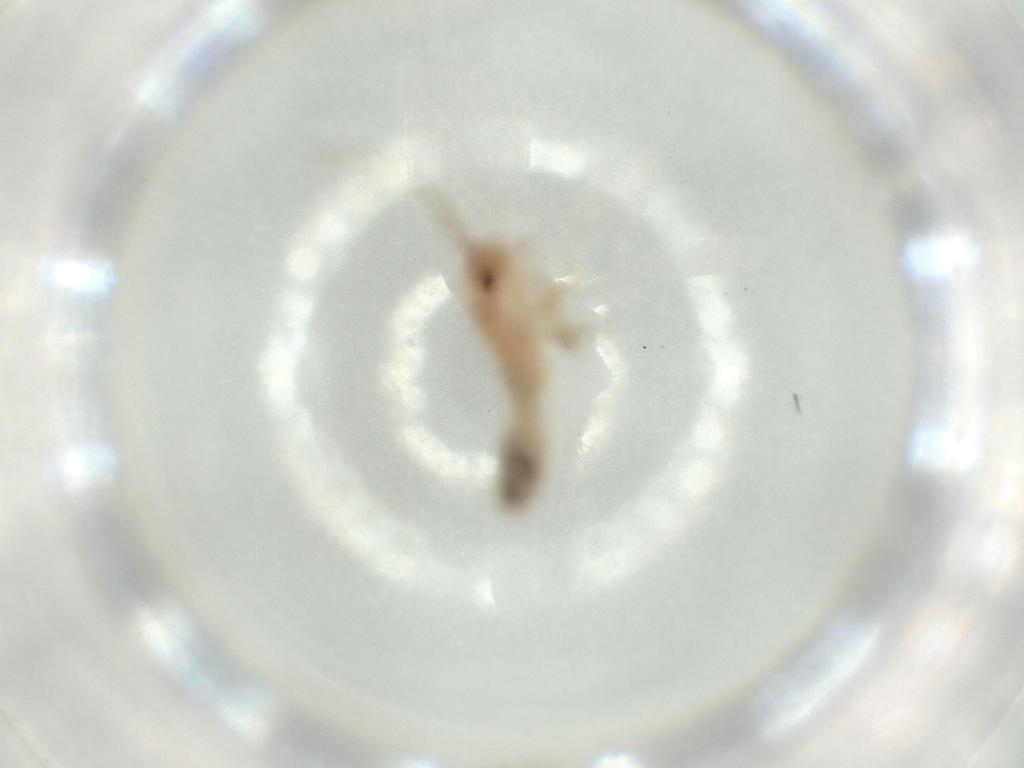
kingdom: Animalia
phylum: Arthropoda
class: Insecta
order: Orthoptera
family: Mogoplistidae
